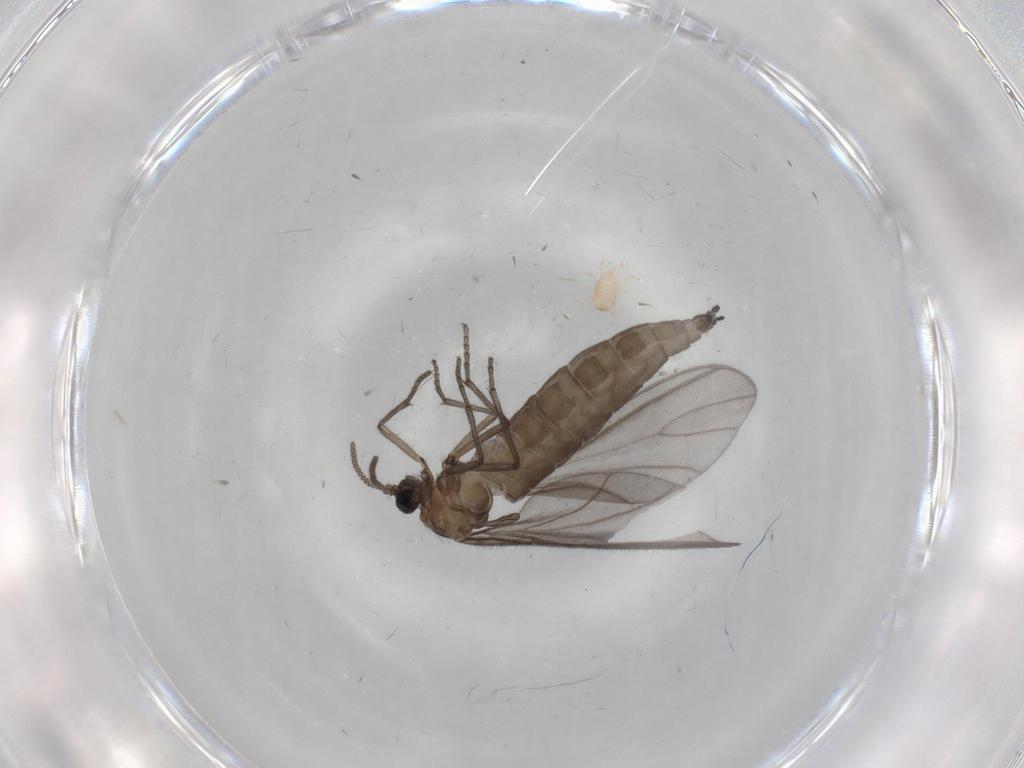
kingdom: Animalia
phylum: Arthropoda
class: Insecta
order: Diptera
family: Sciaridae
